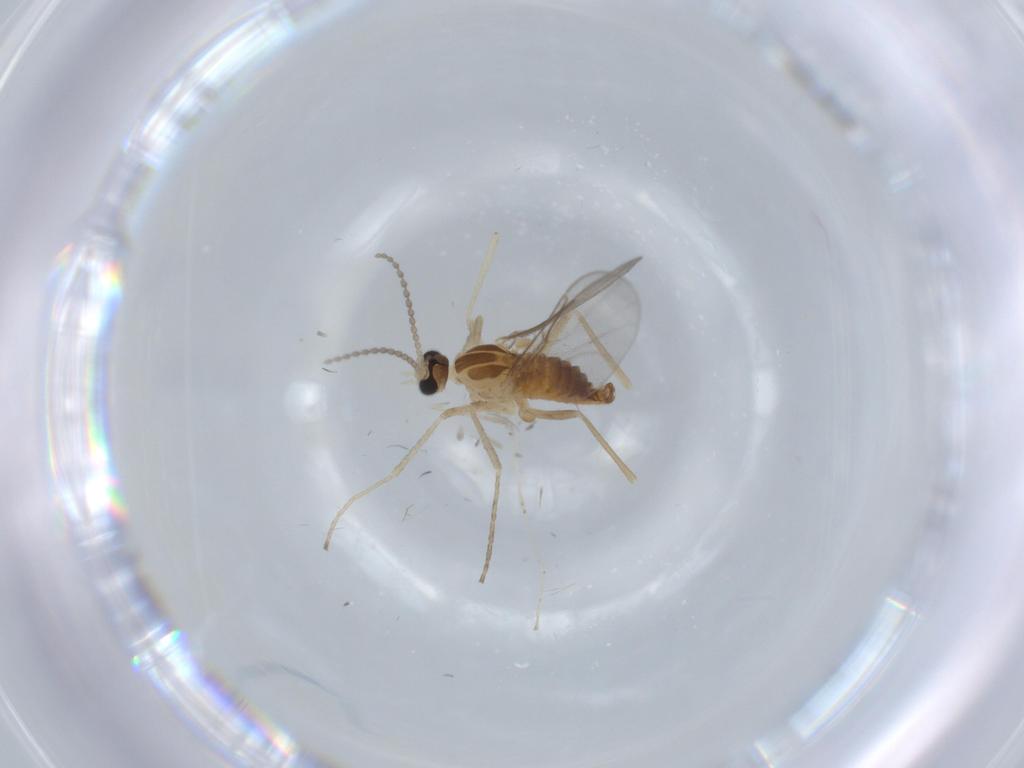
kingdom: Animalia
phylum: Arthropoda
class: Insecta
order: Diptera
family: Cecidomyiidae
